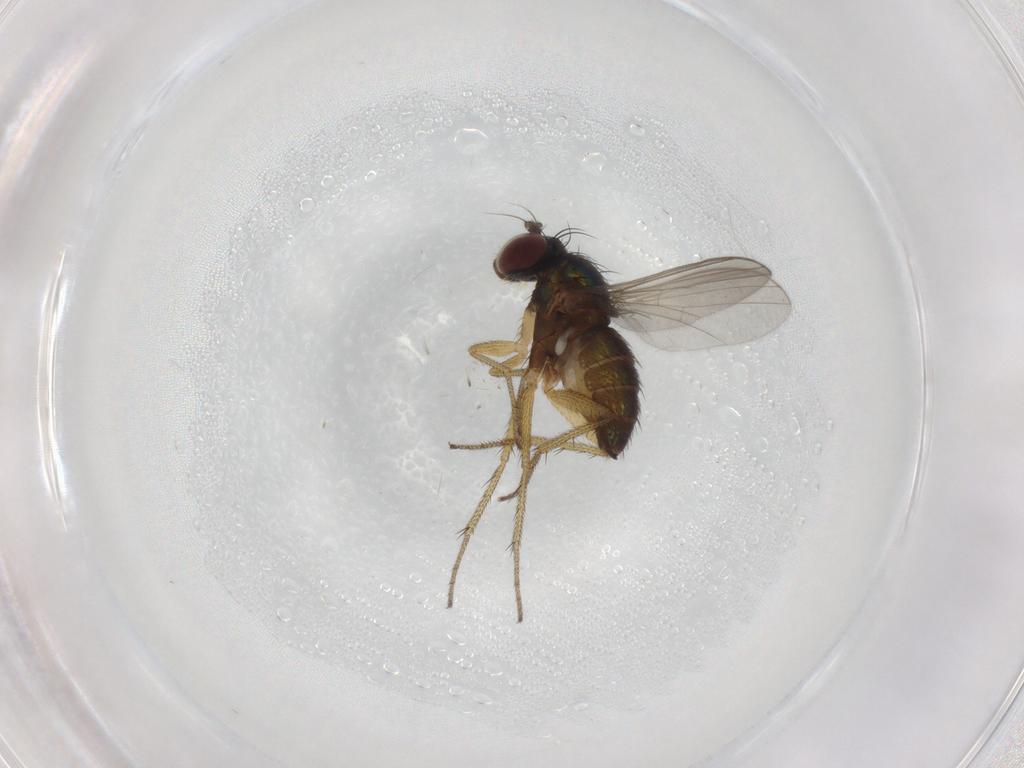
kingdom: Animalia
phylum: Arthropoda
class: Insecta
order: Diptera
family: Dolichopodidae
